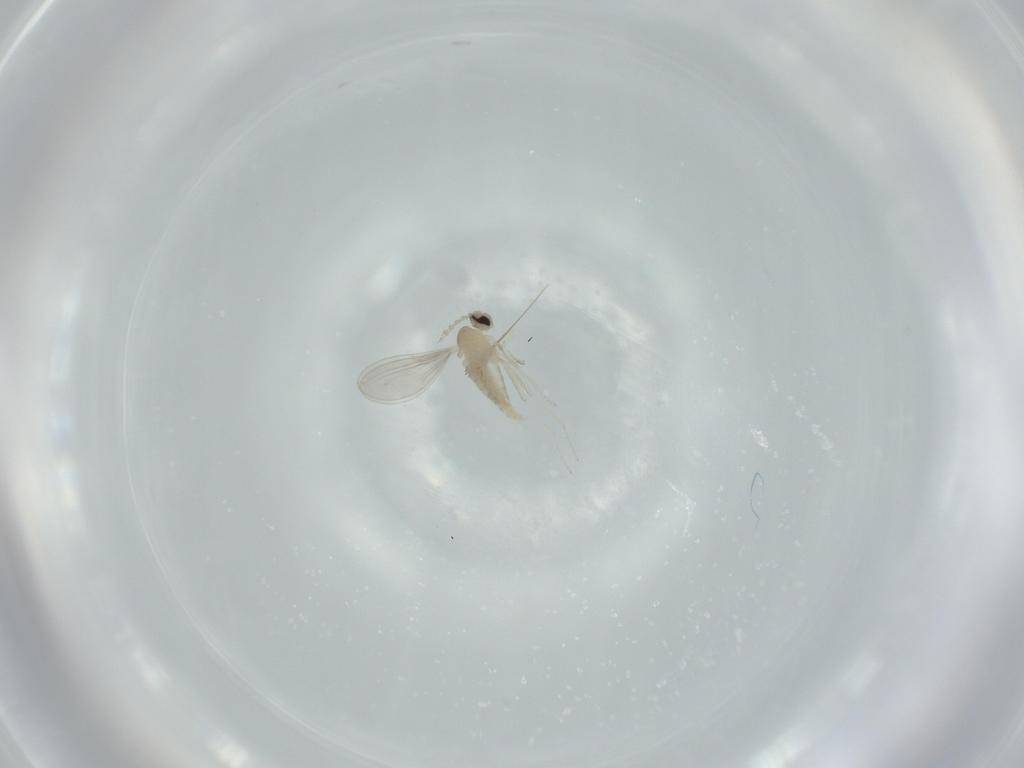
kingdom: Animalia
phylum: Arthropoda
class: Insecta
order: Diptera
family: Cecidomyiidae
